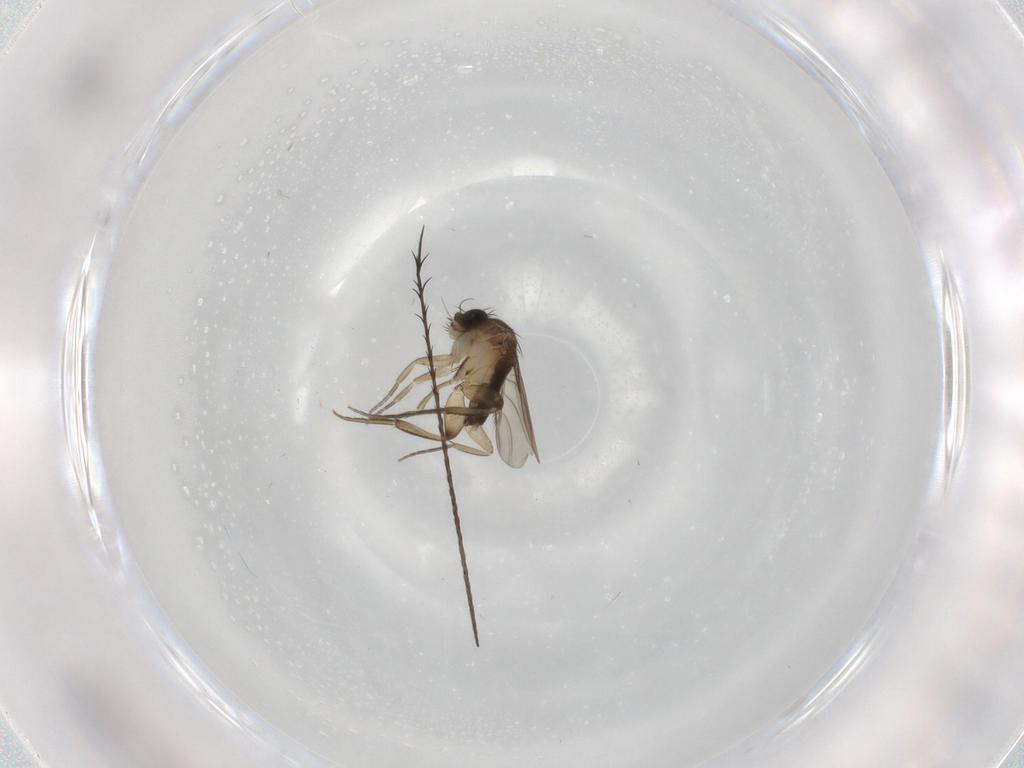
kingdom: Animalia
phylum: Arthropoda
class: Insecta
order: Diptera
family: Phoridae
